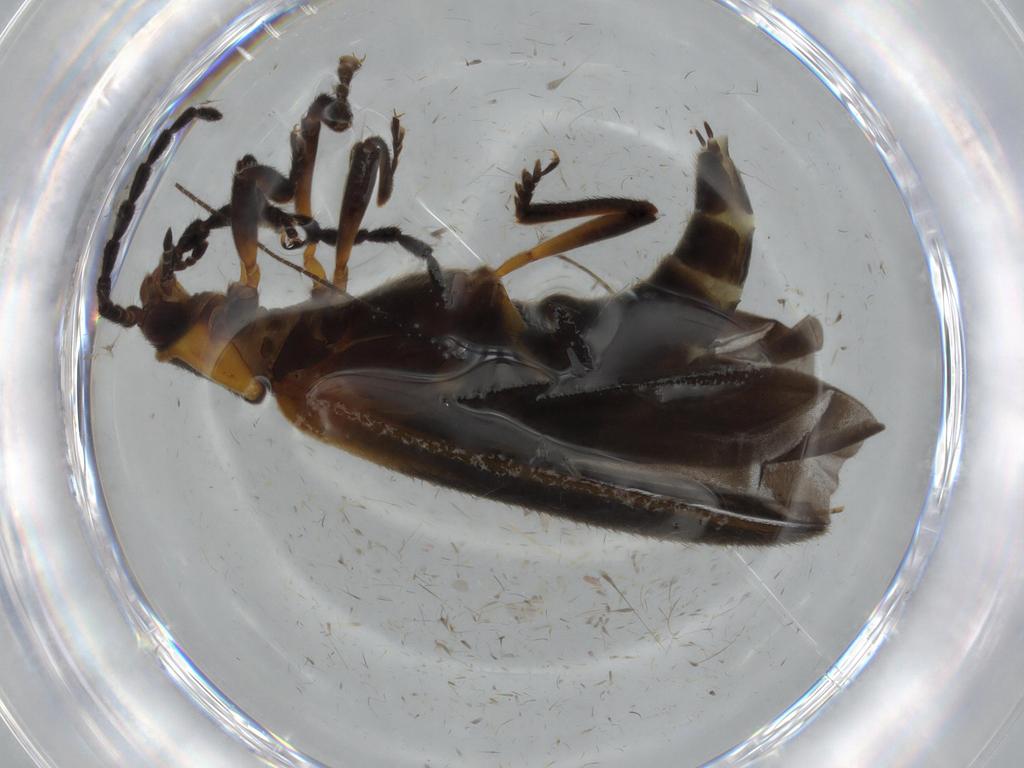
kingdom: Animalia
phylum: Arthropoda
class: Insecta
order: Coleoptera
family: Lycidae
